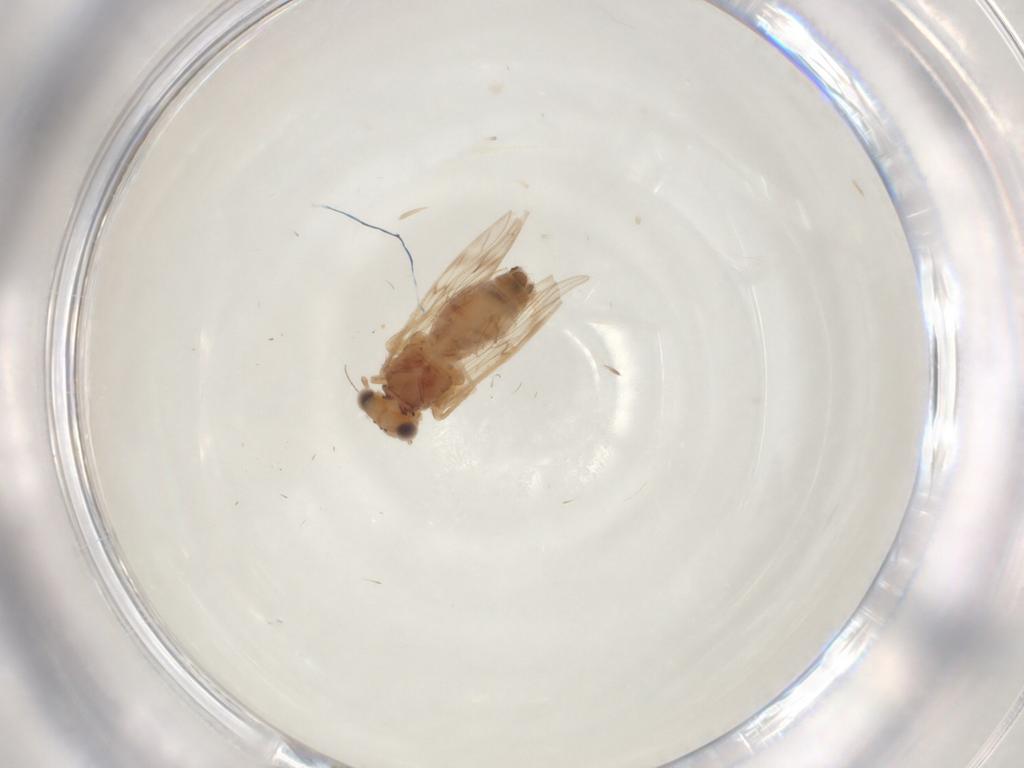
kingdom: Animalia
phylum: Arthropoda
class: Insecta
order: Psocodea
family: Lepidopsocidae
